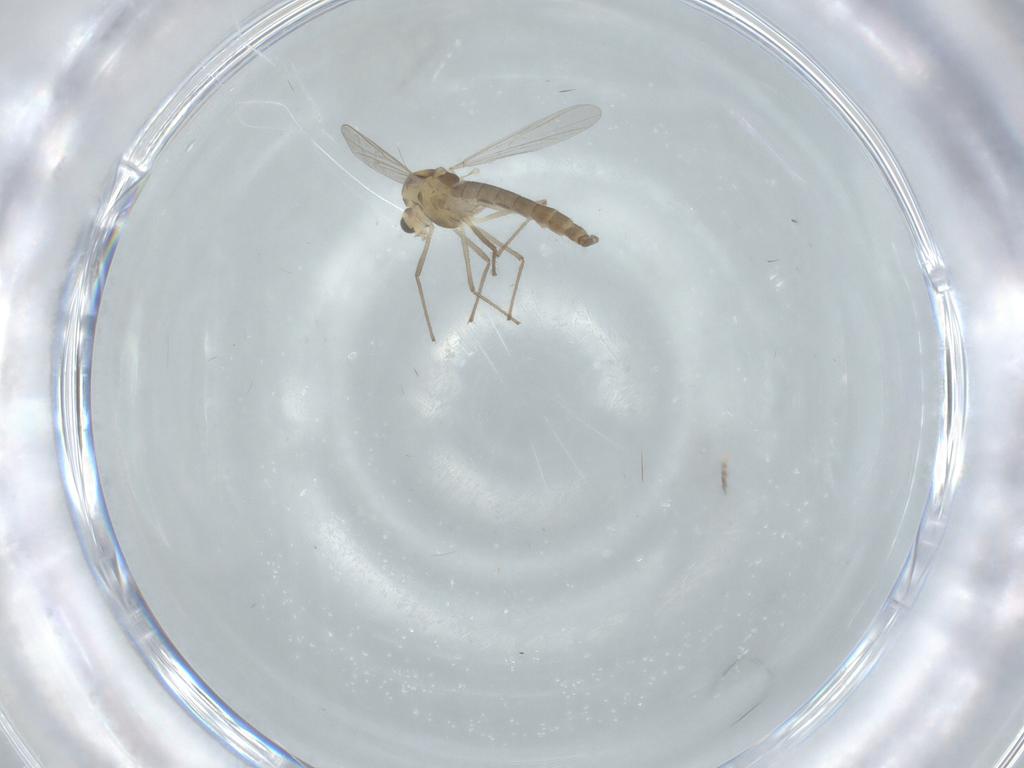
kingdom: Animalia
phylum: Arthropoda
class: Insecta
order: Diptera
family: Chironomidae
